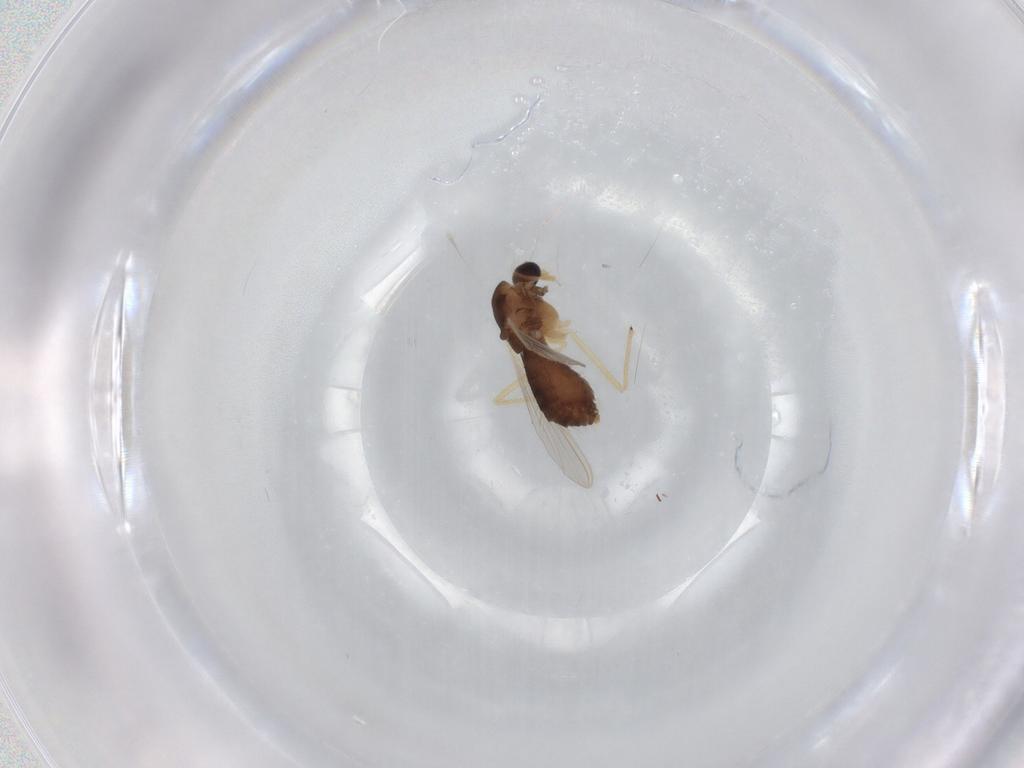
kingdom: Animalia
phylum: Arthropoda
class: Insecta
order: Diptera
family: Chironomidae
